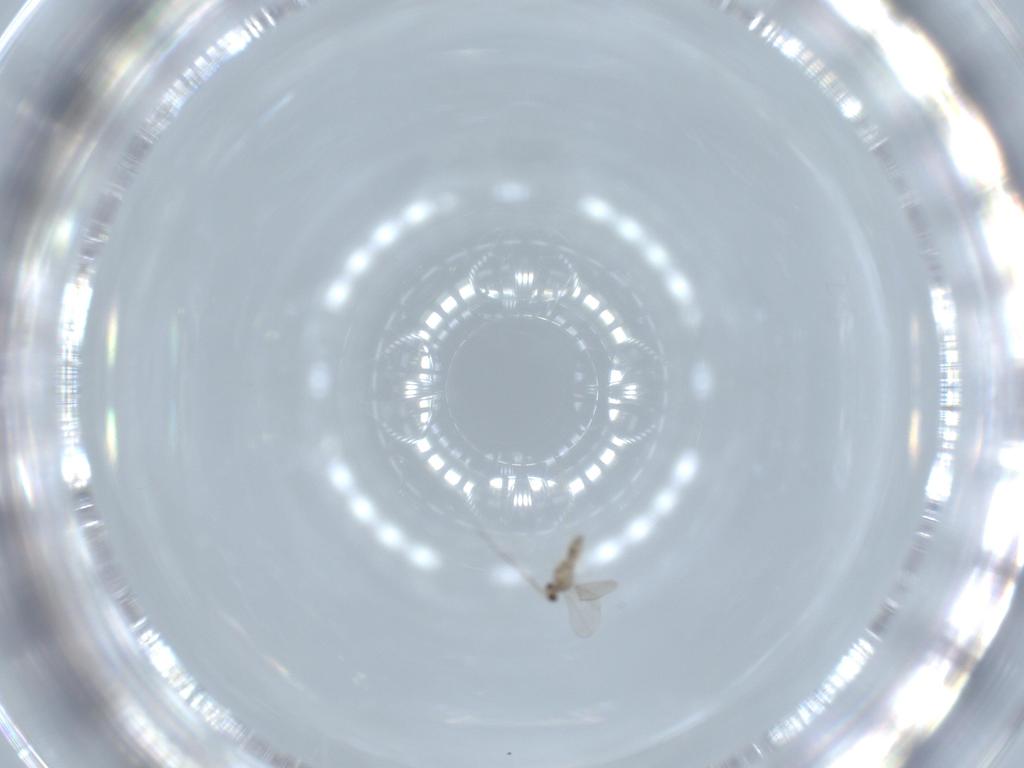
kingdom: Animalia
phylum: Arthropoda
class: Insecta
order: Diptera
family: Cecidomyiidae
